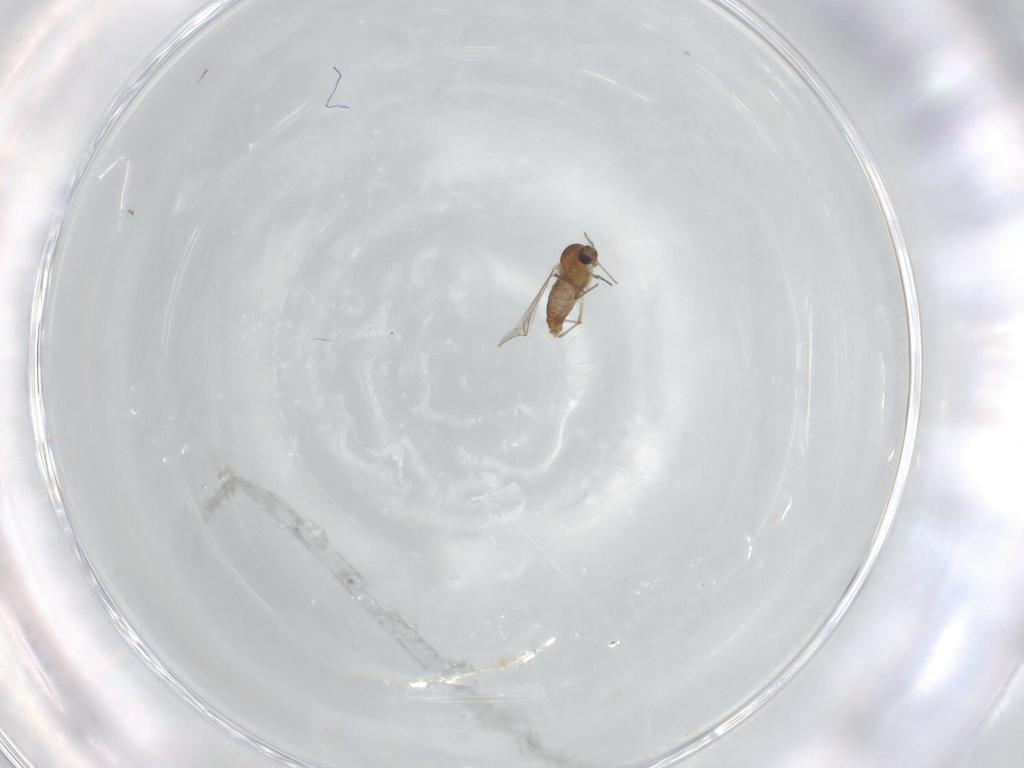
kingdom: Animalia
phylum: Arthropoda
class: Insecta
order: Diptera
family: Chironomidae
